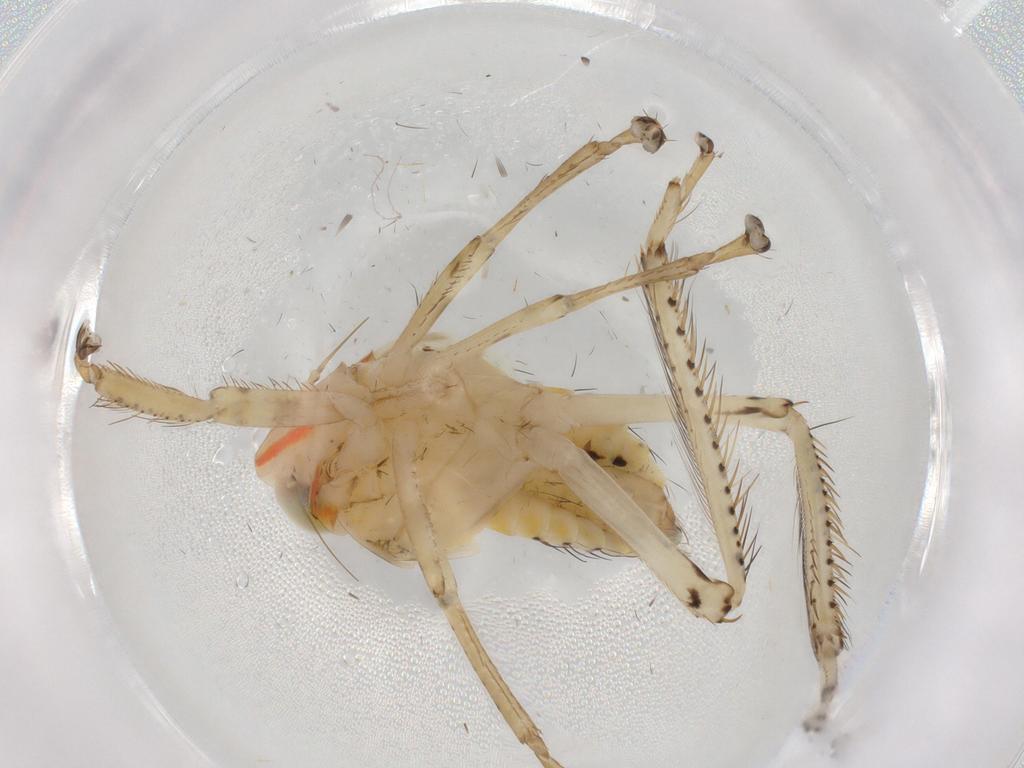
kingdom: Animalia
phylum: Arthropoda
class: Insecta
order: Hemiptera
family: Cicadellidae
